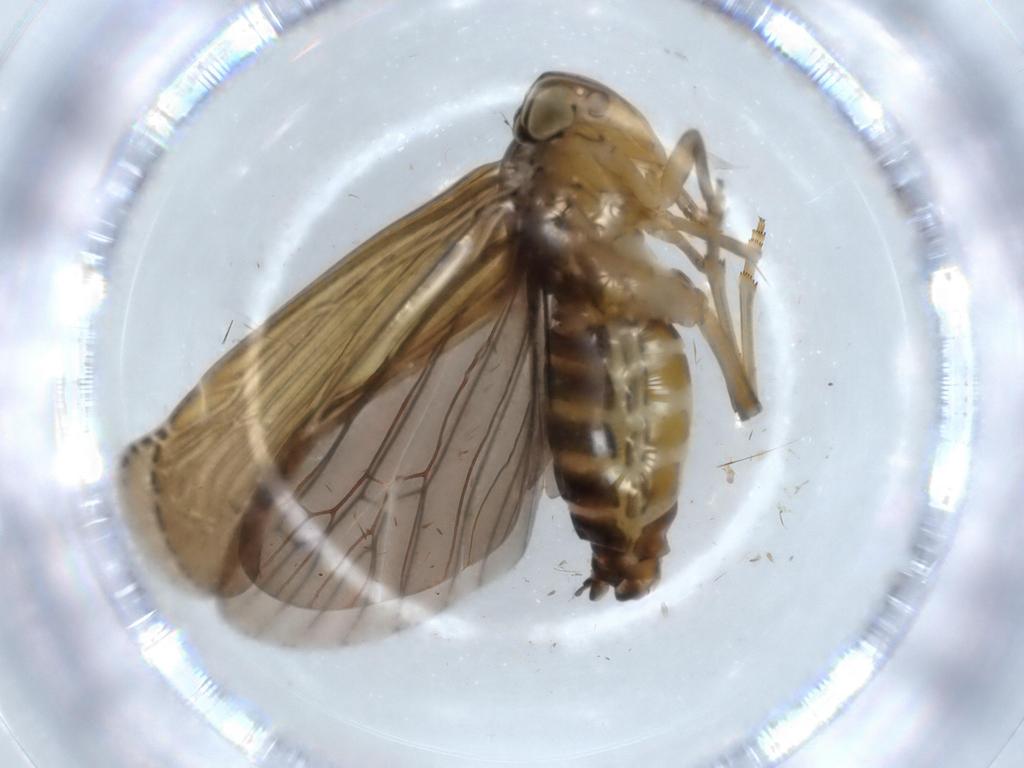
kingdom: Animalia
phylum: Arthropoda
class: Insecta
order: Hemiptera
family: Achilidae
